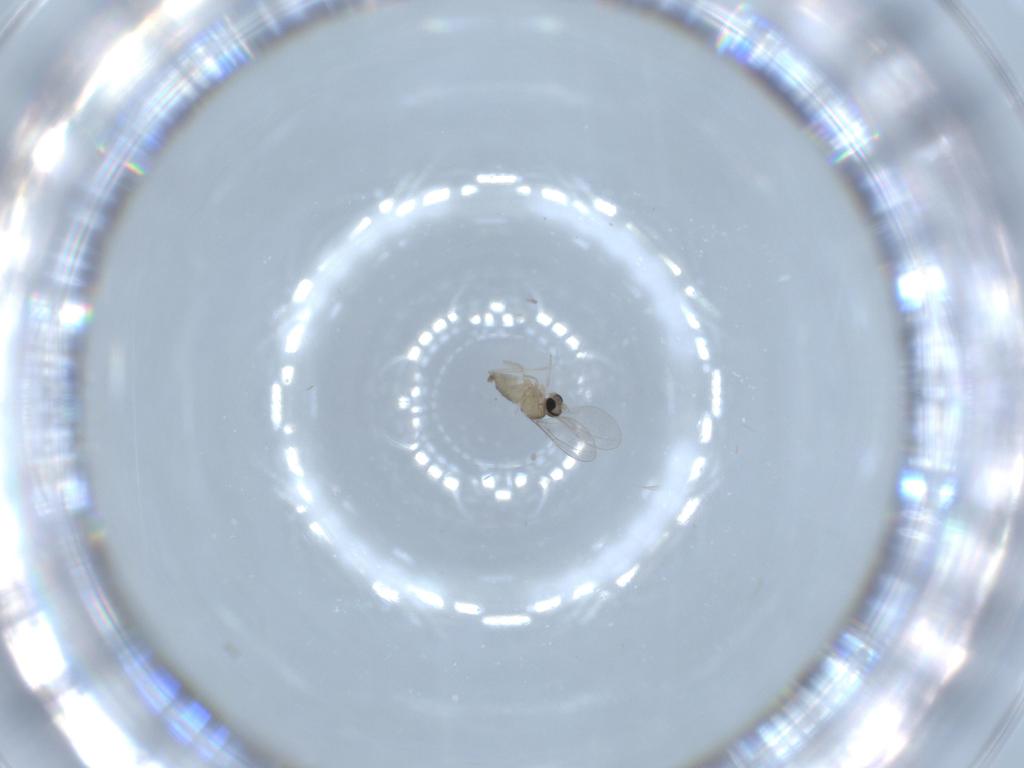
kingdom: Animalia
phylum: Arthropoda
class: Insecta
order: Diptera
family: Cecidomyiidae
